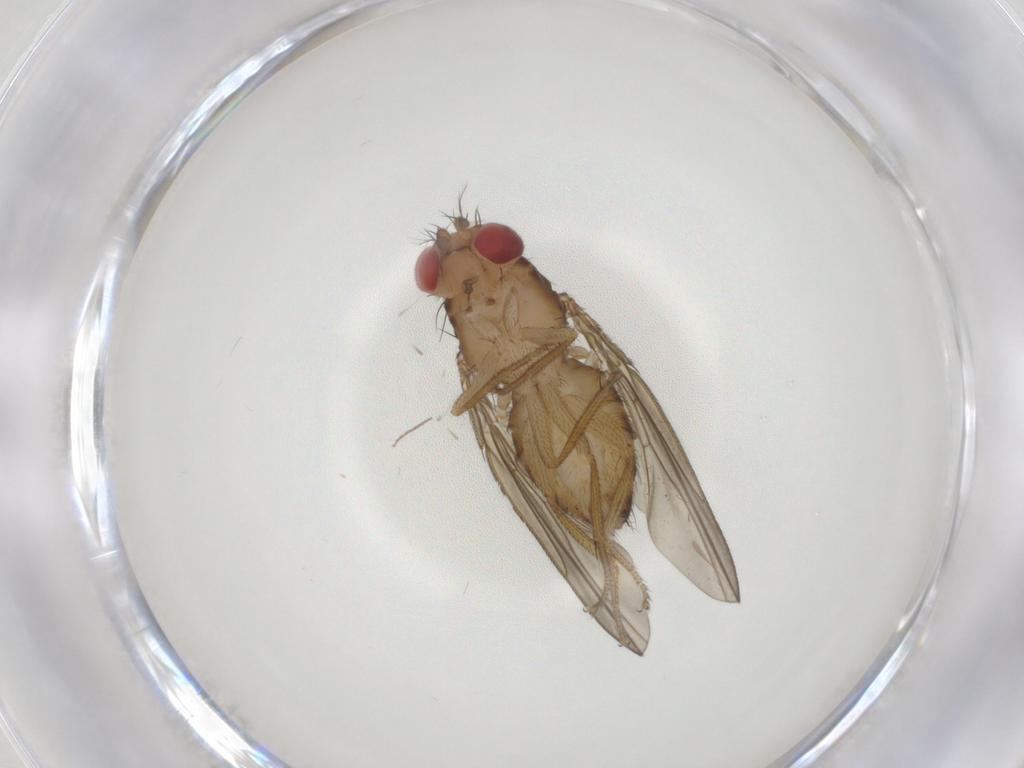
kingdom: Animalia
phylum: Arthropoda
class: Insecta
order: Diptera
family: Drosophilidae
